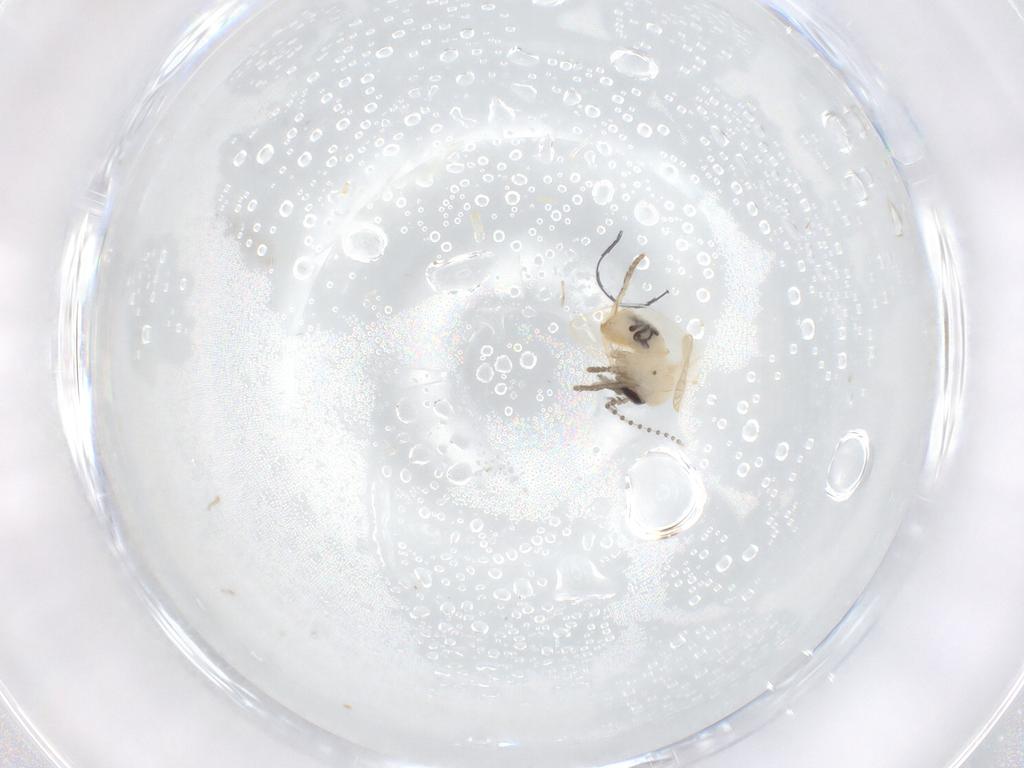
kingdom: Animalia
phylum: Arthropoda
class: Insecta
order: Diptera
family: Psychodidae
